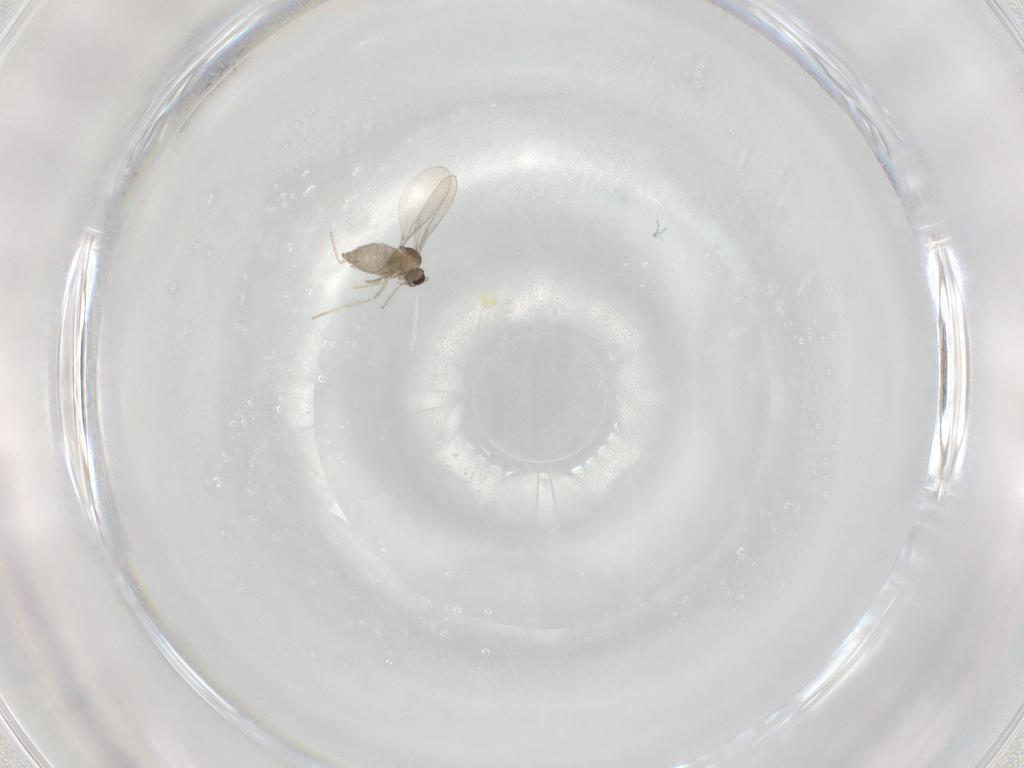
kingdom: Animalia
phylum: Arthropoda
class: Insecta
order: Diptera
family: Cecidomyiidae
